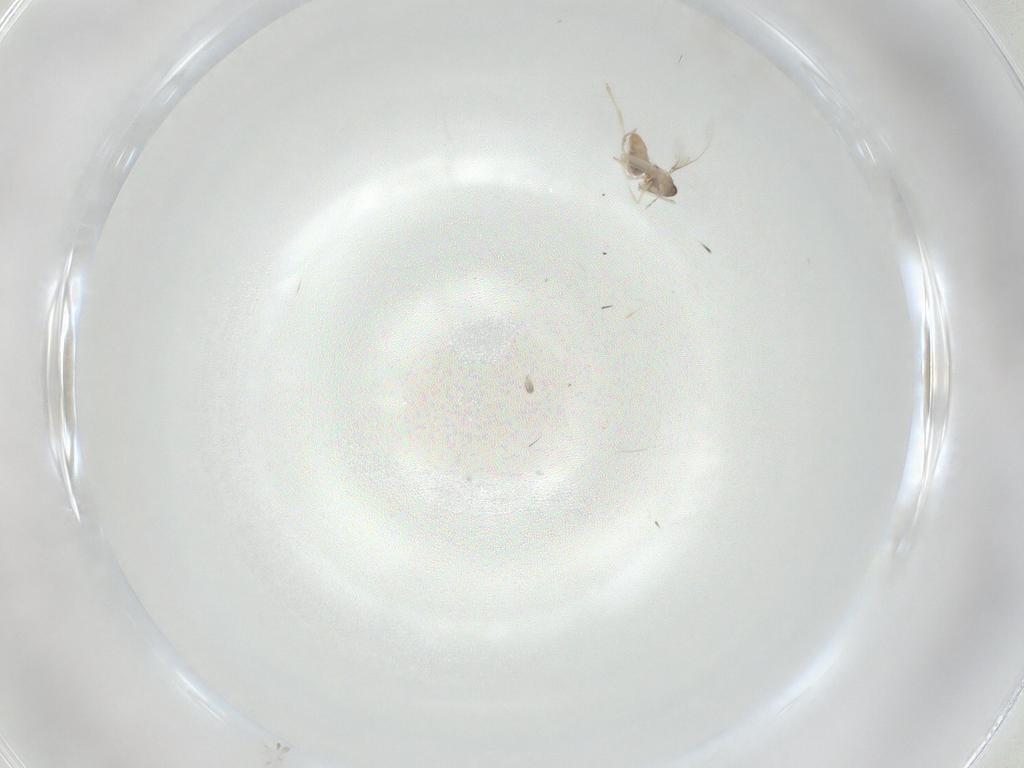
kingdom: Animalia
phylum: Arthropoda
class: Insecta
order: Diptera
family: Cecidomyiidae
